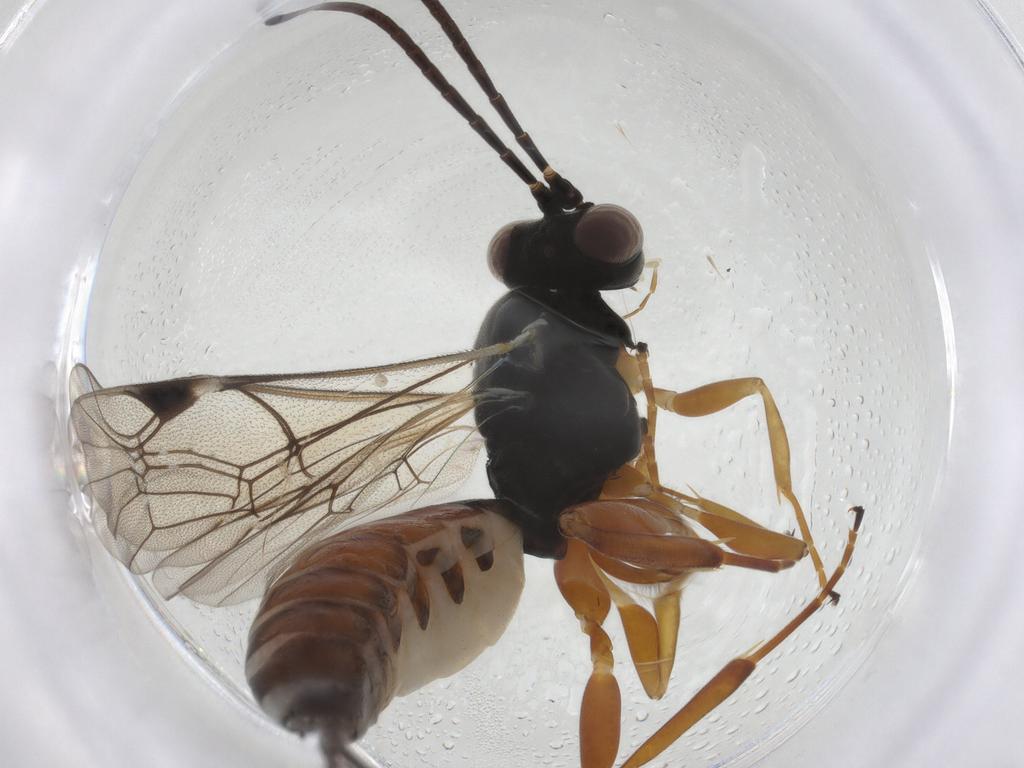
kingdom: Animalia
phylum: Arthropoda
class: Insecta
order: Hymenoptera
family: Ichneumonidae
